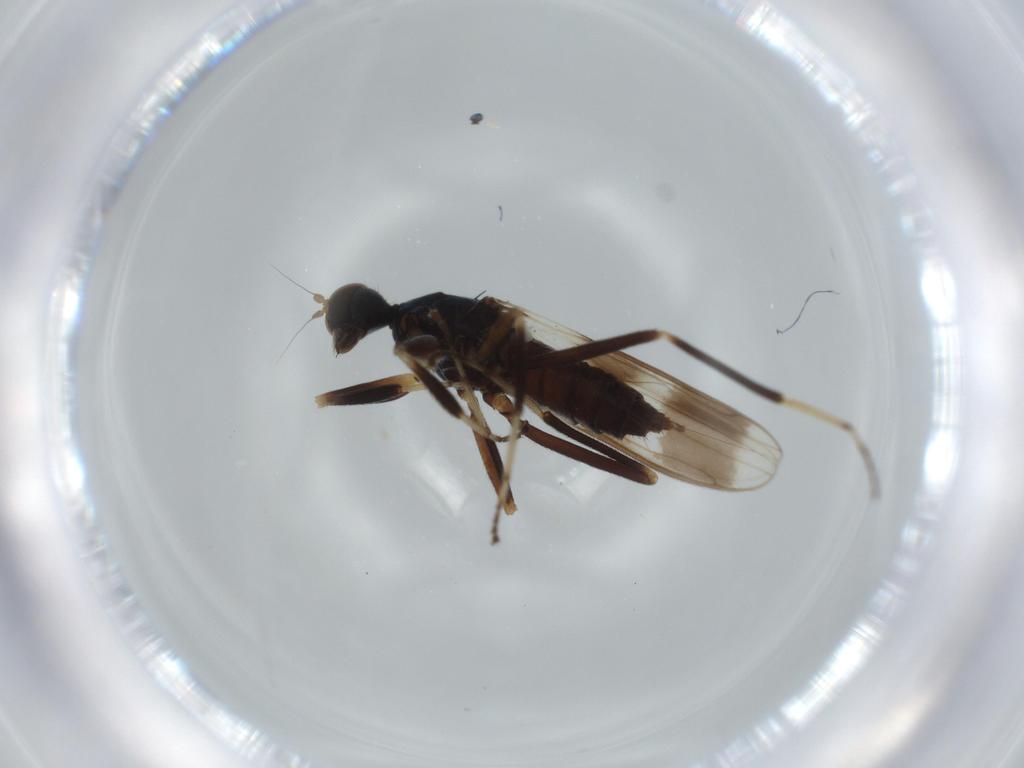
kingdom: Animalia
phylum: Arthropoda
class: Insecta
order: Diptera
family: Hybotidae
